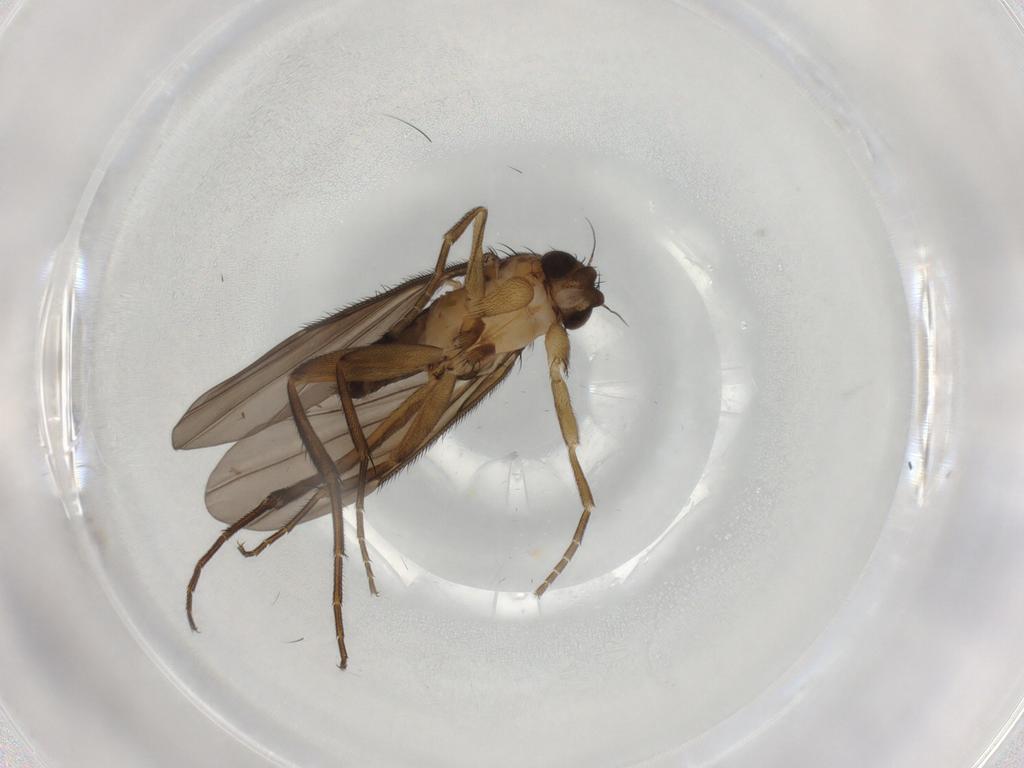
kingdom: Animalia
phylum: Arthropoda
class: Insecta
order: Diptera
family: Phoridae
